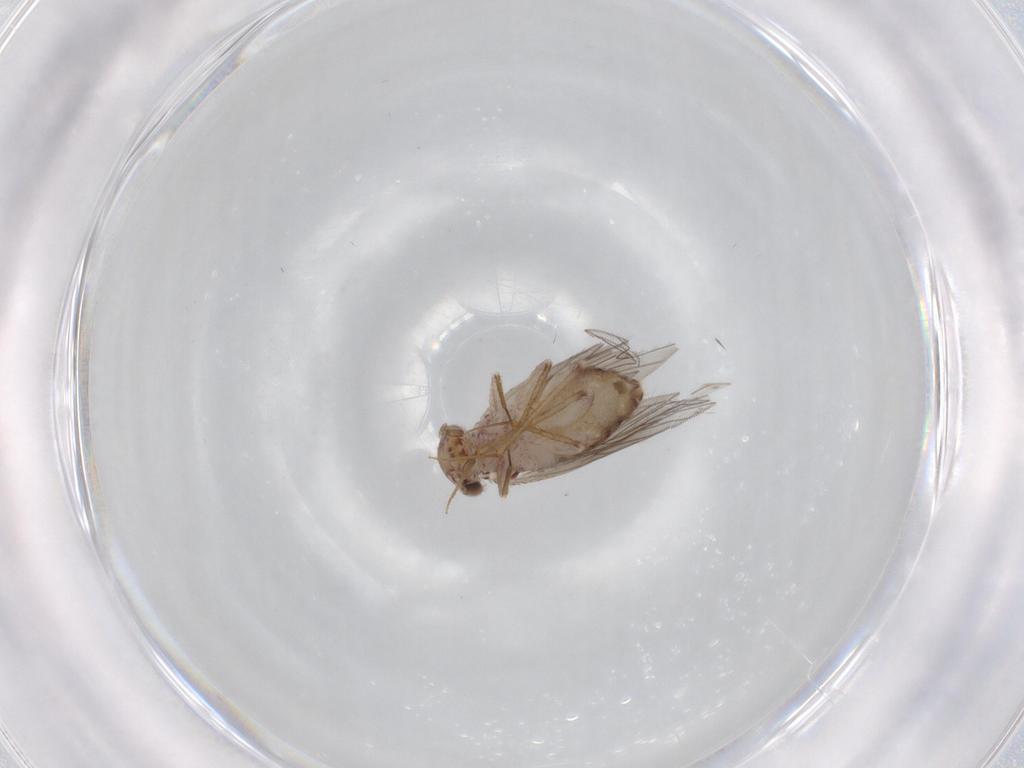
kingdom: Animalia
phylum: Arthropoda
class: Insecta
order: Psocodea
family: Lepidopsocidae
